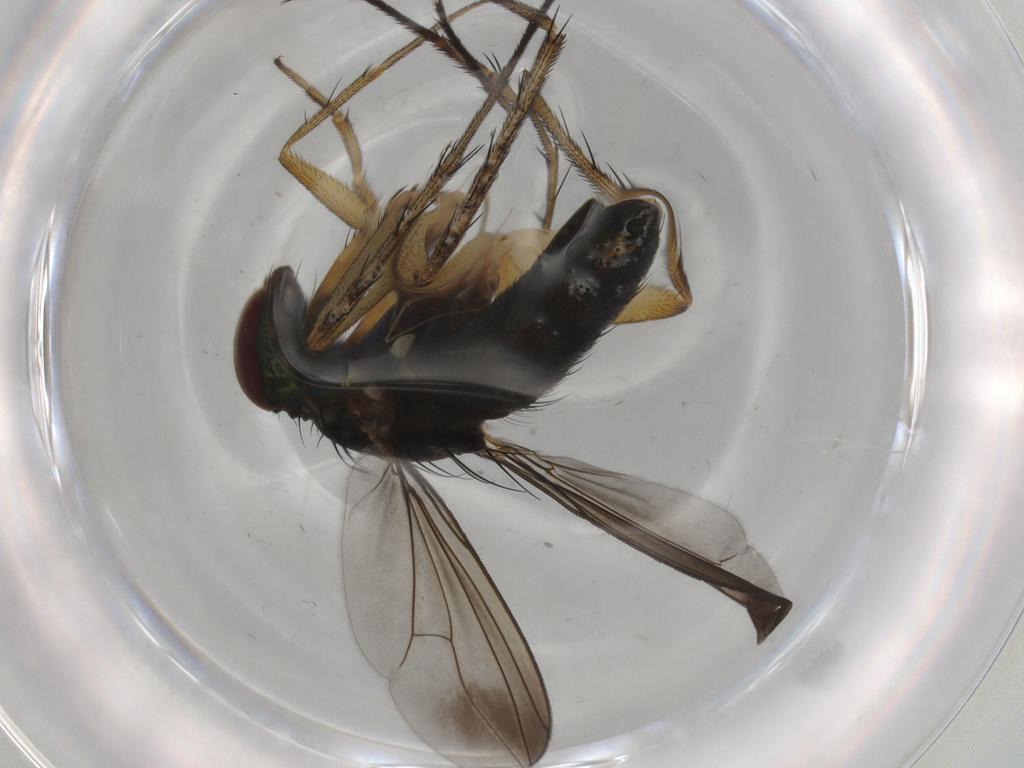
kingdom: Animalia
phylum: Arthropoda
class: Insecta
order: Diptera
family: Dolichopodidae
